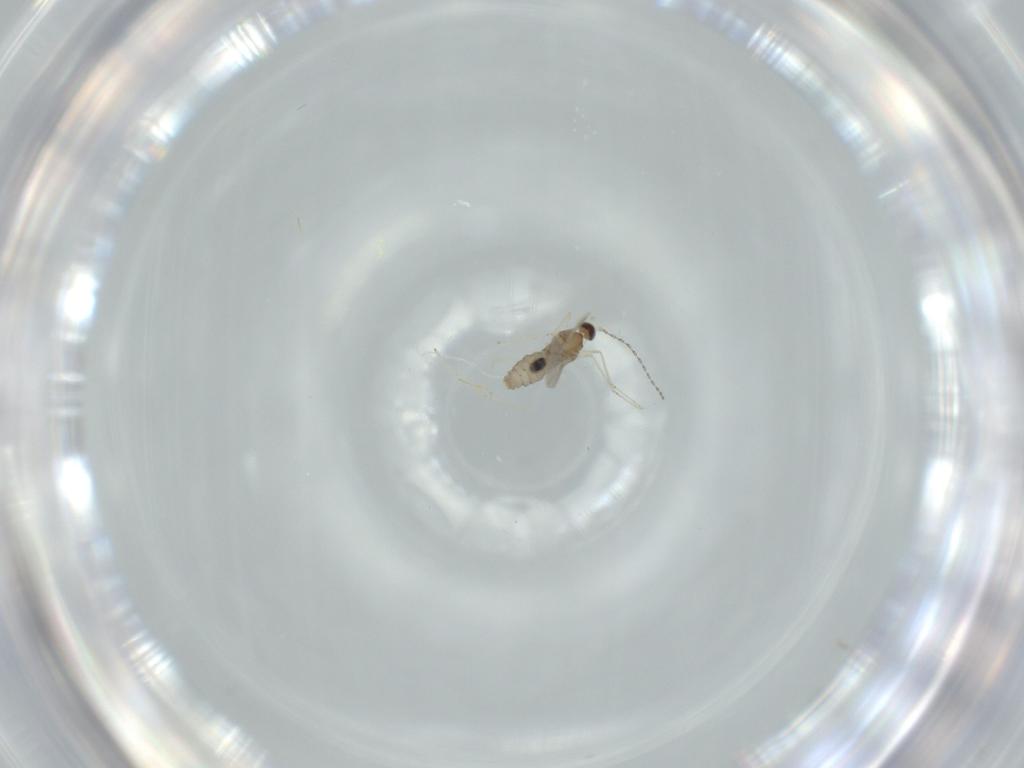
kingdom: Animalia
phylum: Arthropoda
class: Insecta
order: Diptera
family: Cecidomyiidae
